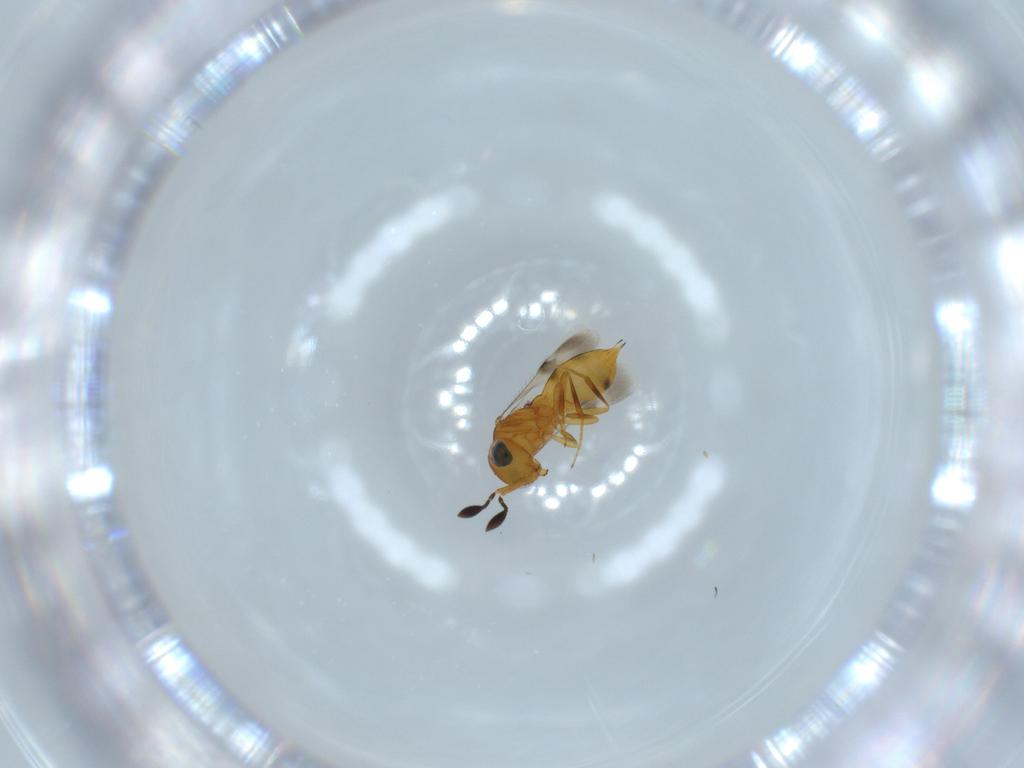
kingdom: Animalia
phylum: Arthropoda
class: Insecta
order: Hymenoptera
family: Scelionidae
